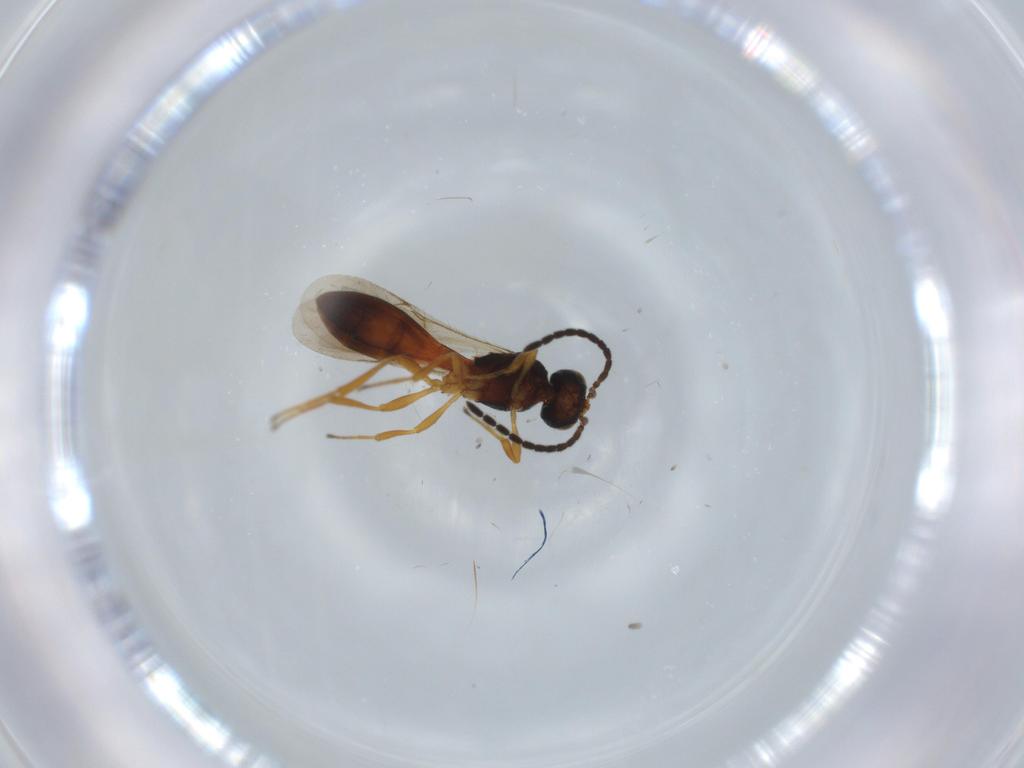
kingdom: Animalia
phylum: Arthropoda
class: Insecta
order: Hymenoptera
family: Scelionidae
